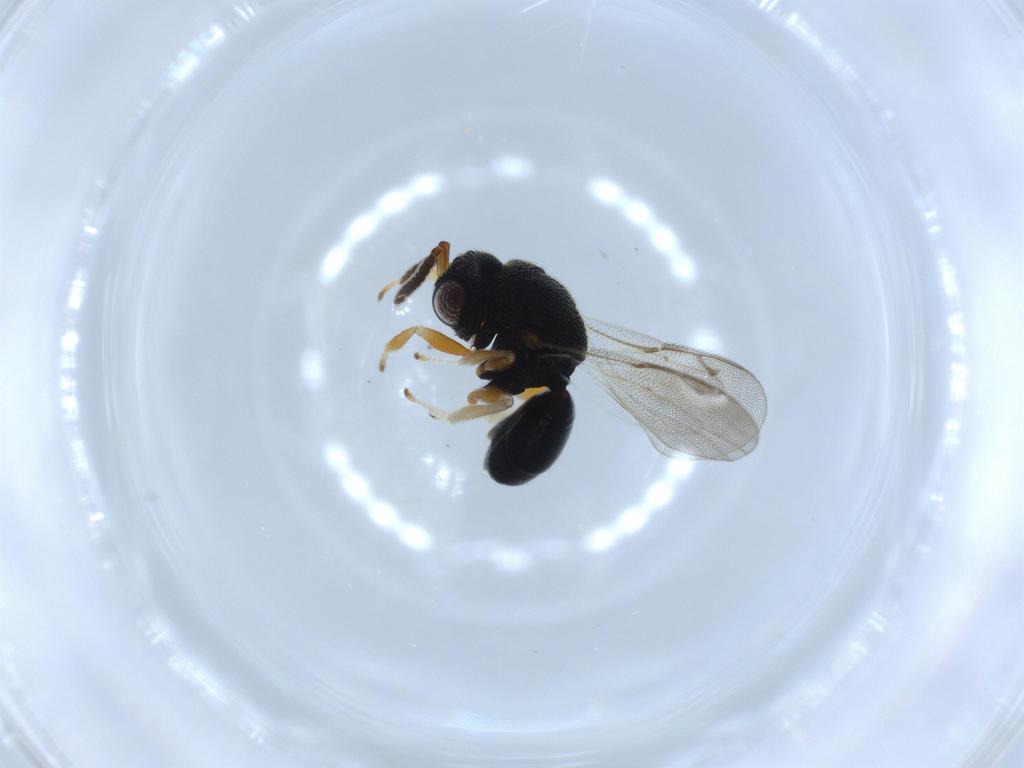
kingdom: Animalia
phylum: Arthropoda
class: Insecta
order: Hymenoptera
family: Eurytomidae
